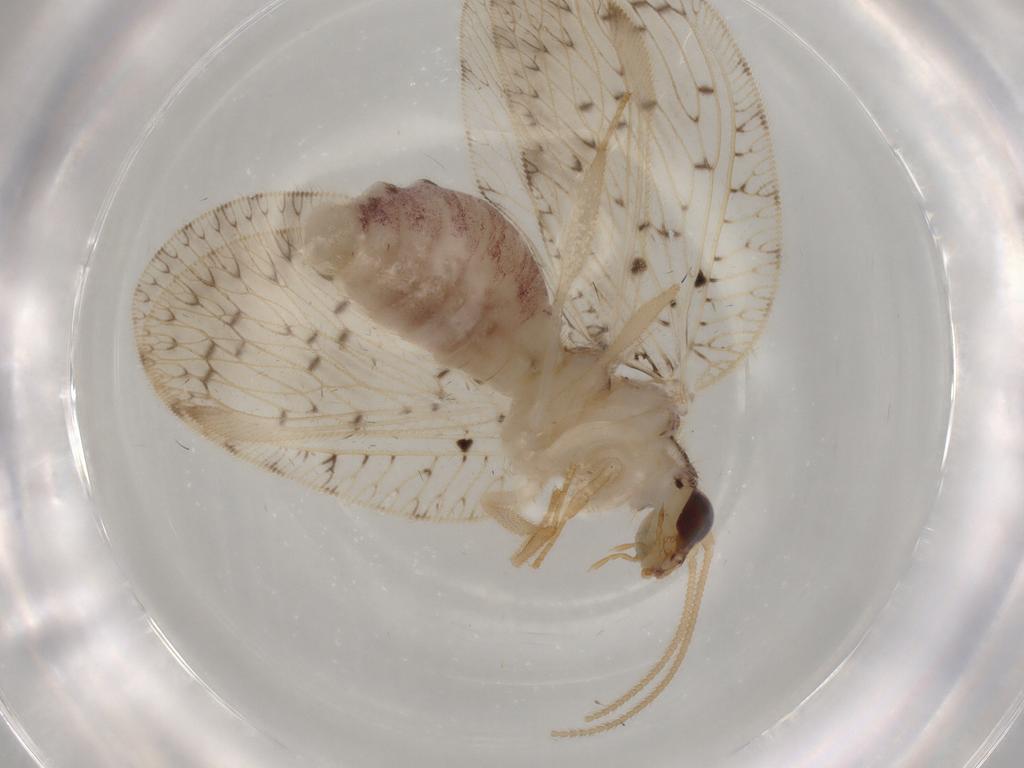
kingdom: Animalia
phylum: Arthropoda
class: Insecta
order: Neuroptera
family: Hemerobiidae
